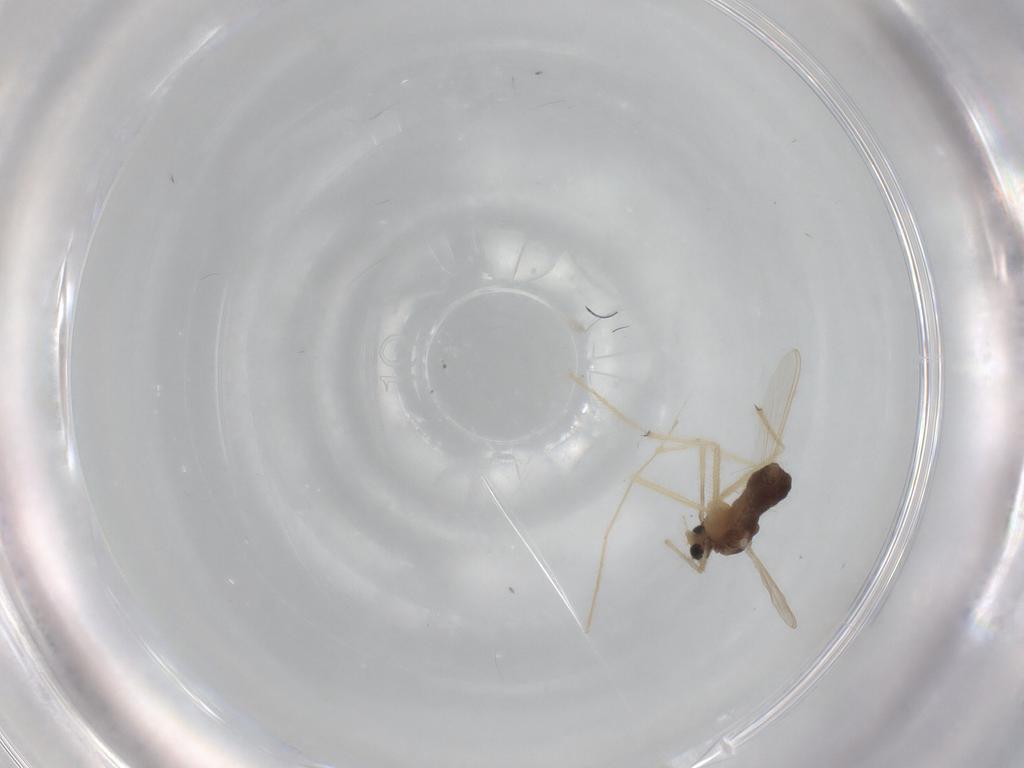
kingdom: Animalia
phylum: Arthropoda
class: Insecta
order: Diptera
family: Chironomidae
